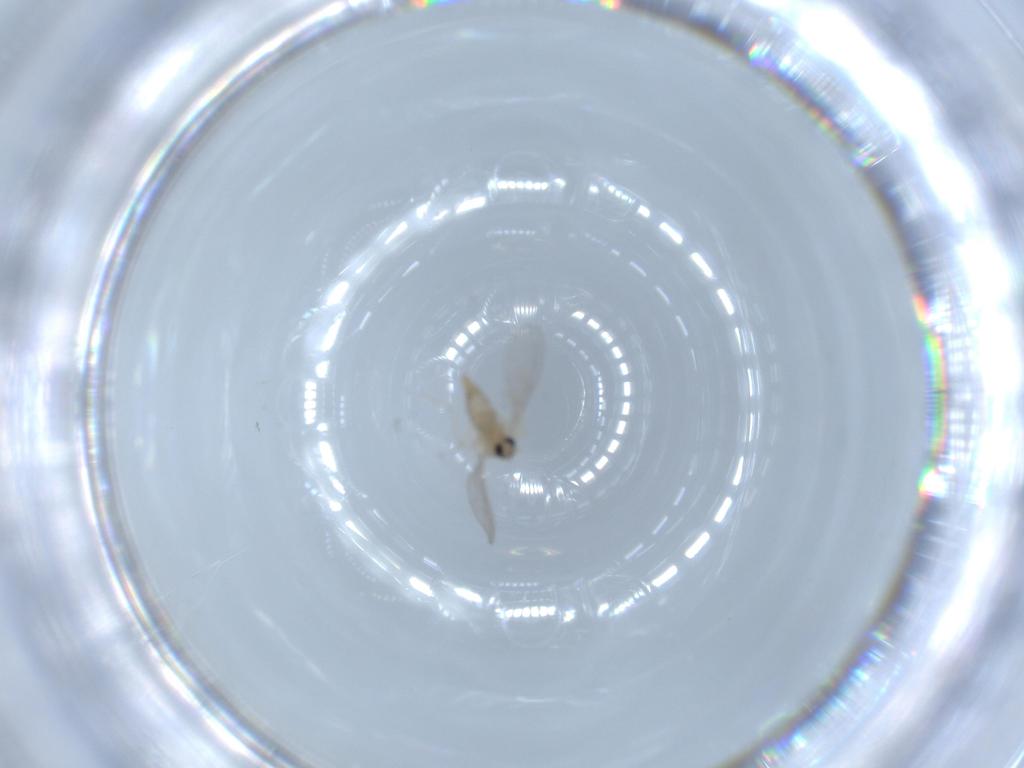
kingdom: Animalia
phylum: Arthropoda
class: Insecta
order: Diptera
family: Cecidomyiidae
